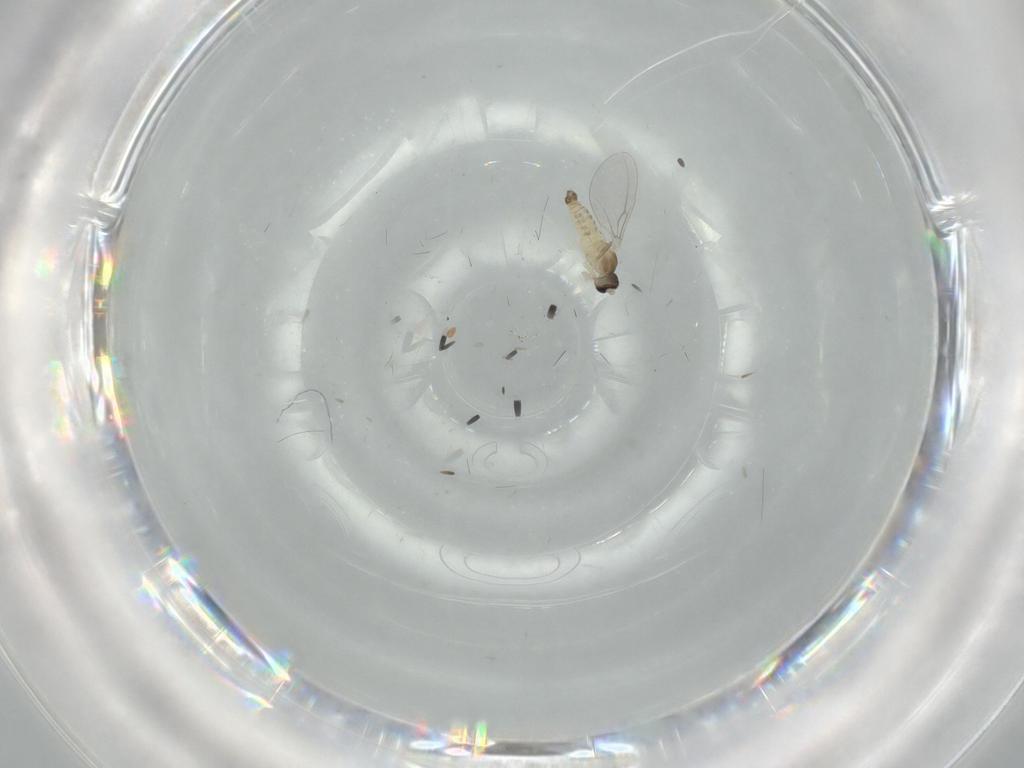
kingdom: Animalia
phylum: Arthropoda
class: Insecta
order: Diptera
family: Cecidomyiidae
